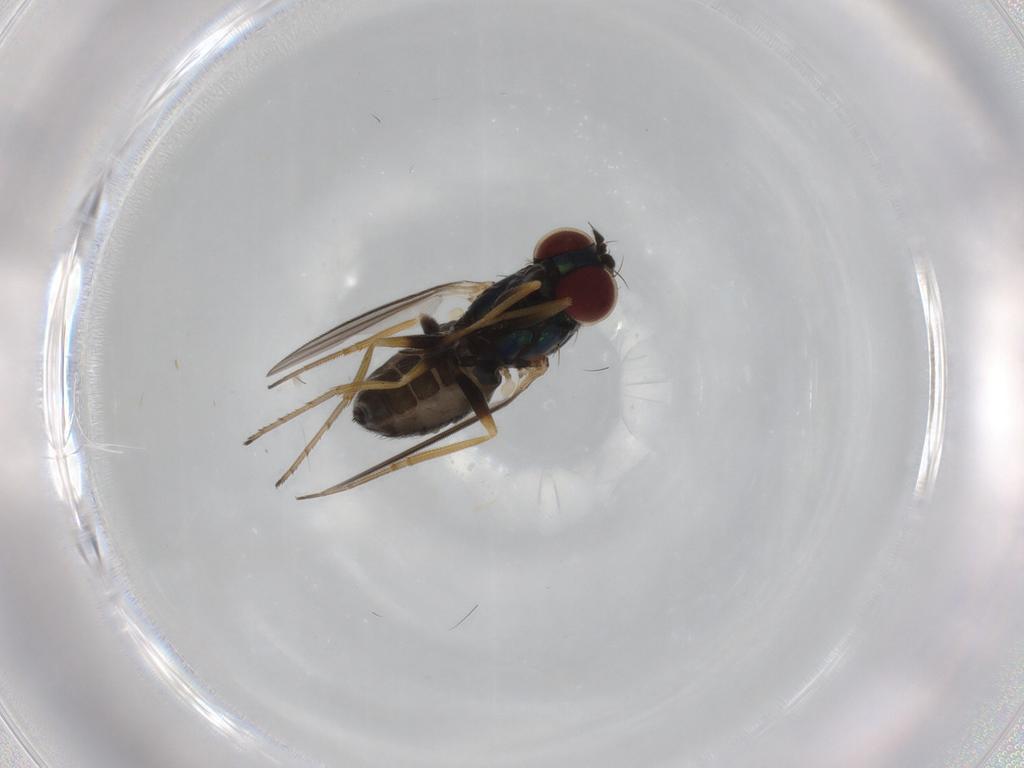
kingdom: Animalia
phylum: Arthropoda
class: Insecta
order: Diptera
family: Dolichopodidae
